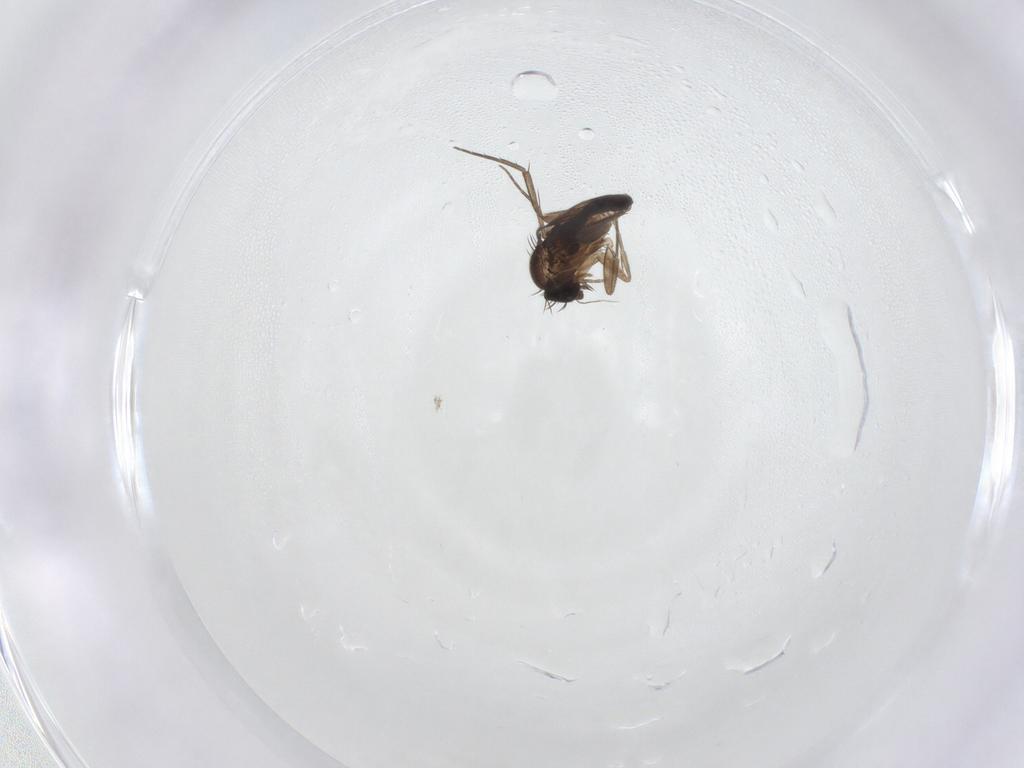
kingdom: Animalia
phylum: Arthropoda
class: Insecta
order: Diptera
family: Phoridae
